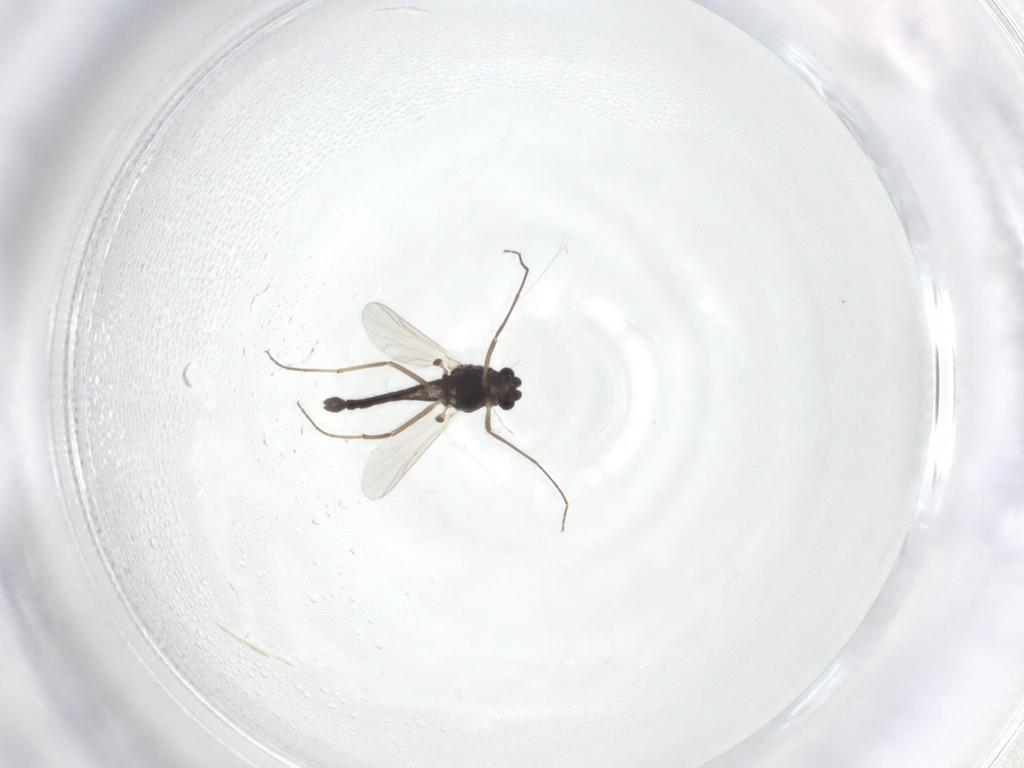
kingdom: Animalia
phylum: Arthropoda
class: Insecta
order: Diptera
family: Chironomidae
